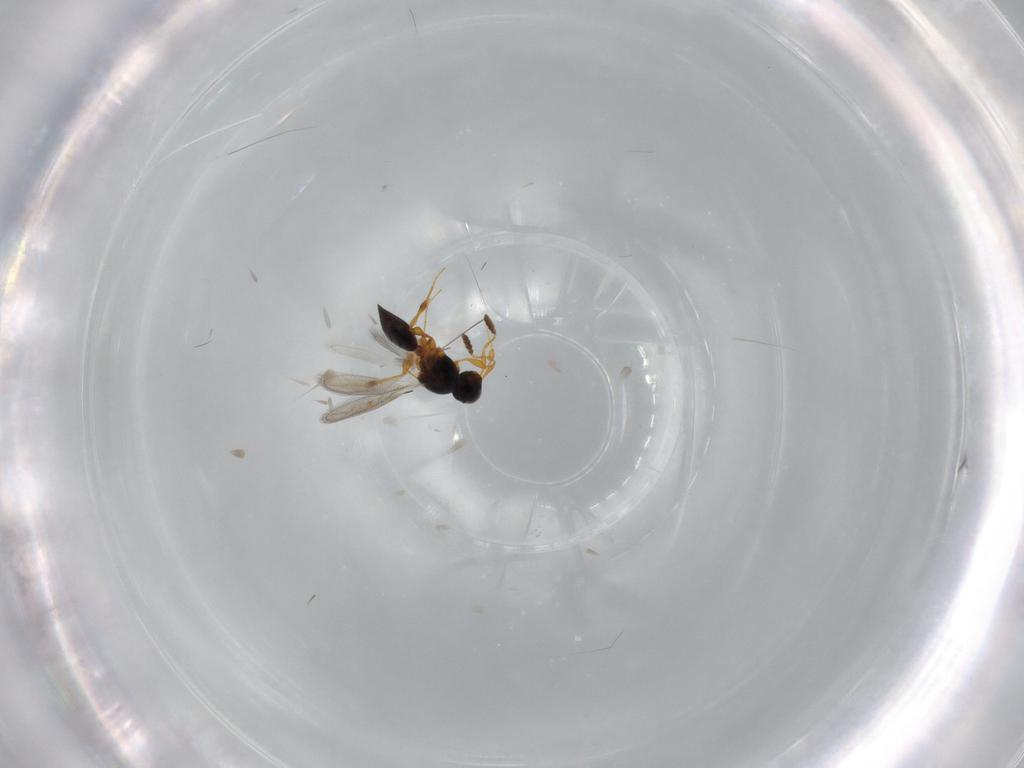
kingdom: Animalia
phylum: Arthropoda
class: Insecta
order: Hymenoptera
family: Platygastridae
